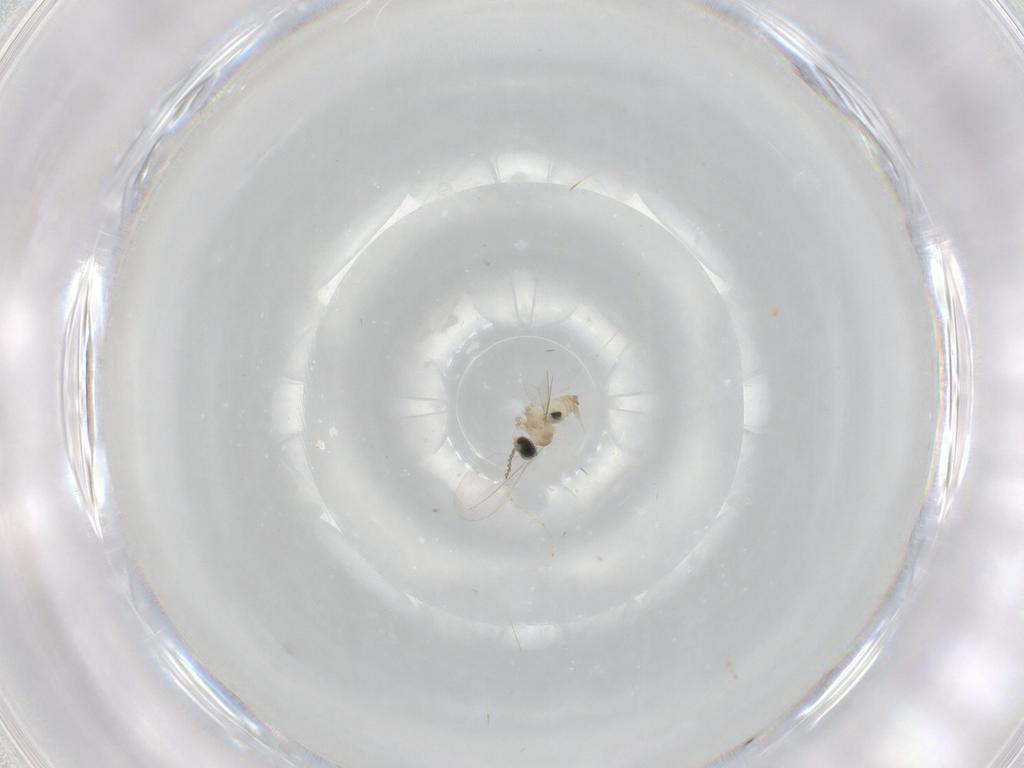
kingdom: Animalia
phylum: Arthropoda
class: Insecta
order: Diptera
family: Cecidomyiidae
